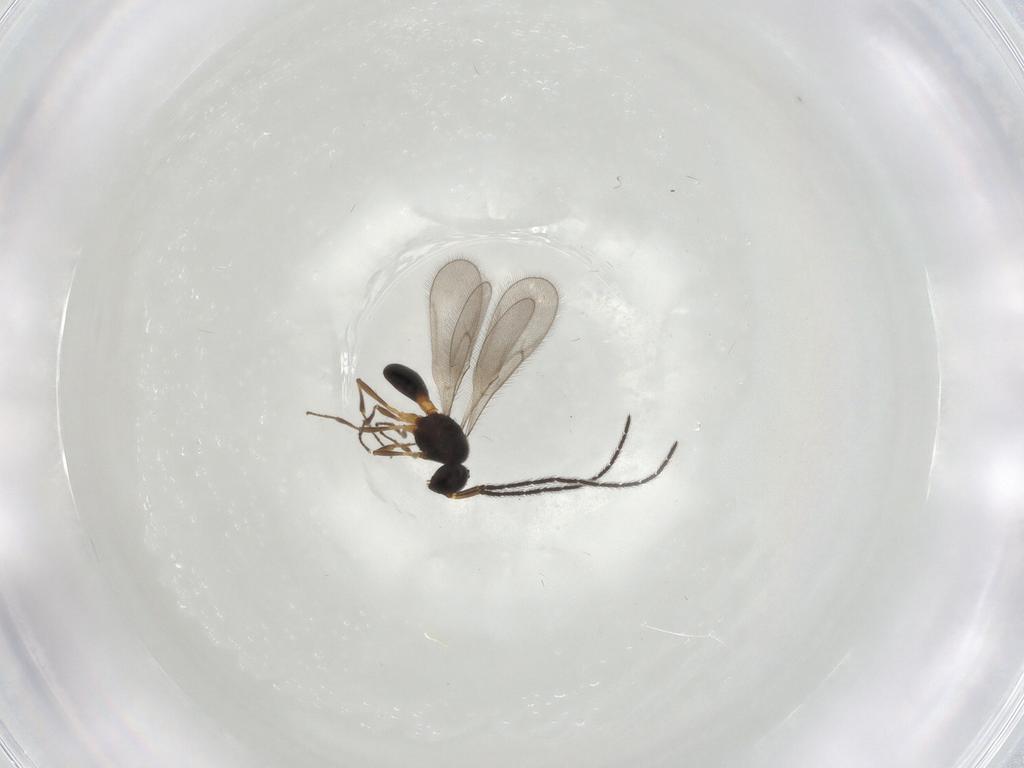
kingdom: Animalia
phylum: Arthropoda
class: Insecta
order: Hymenoptera
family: Scelionidae
